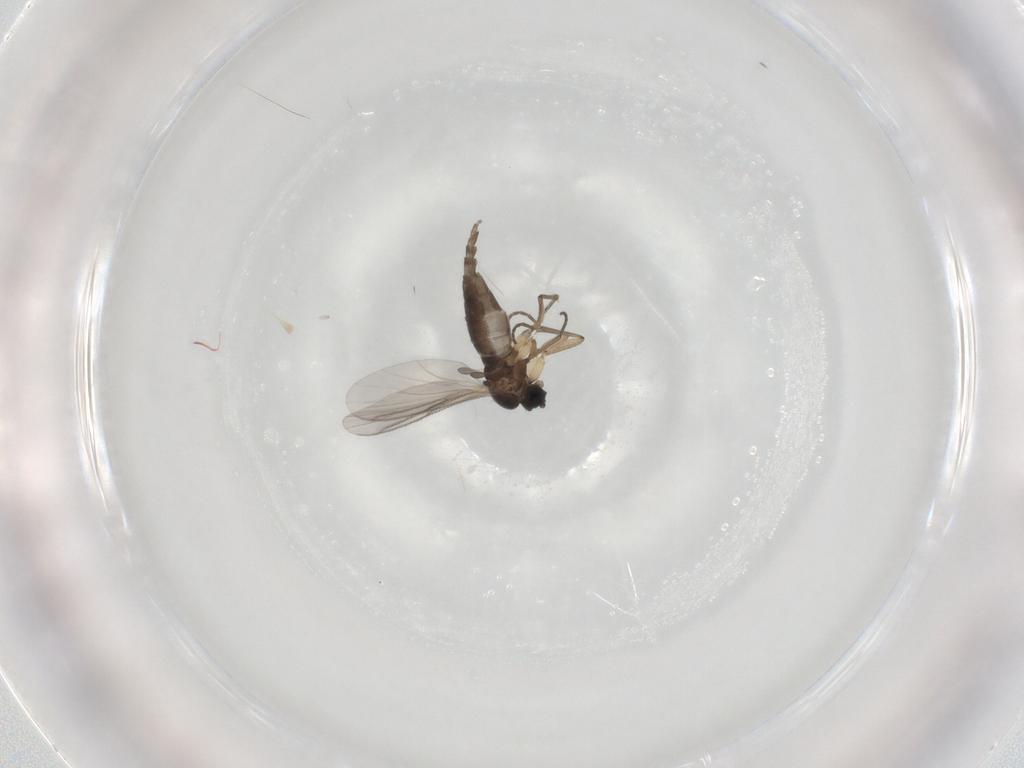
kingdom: Animalia
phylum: Arthropoda
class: Insecta
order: Diptera
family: Sciaridae
